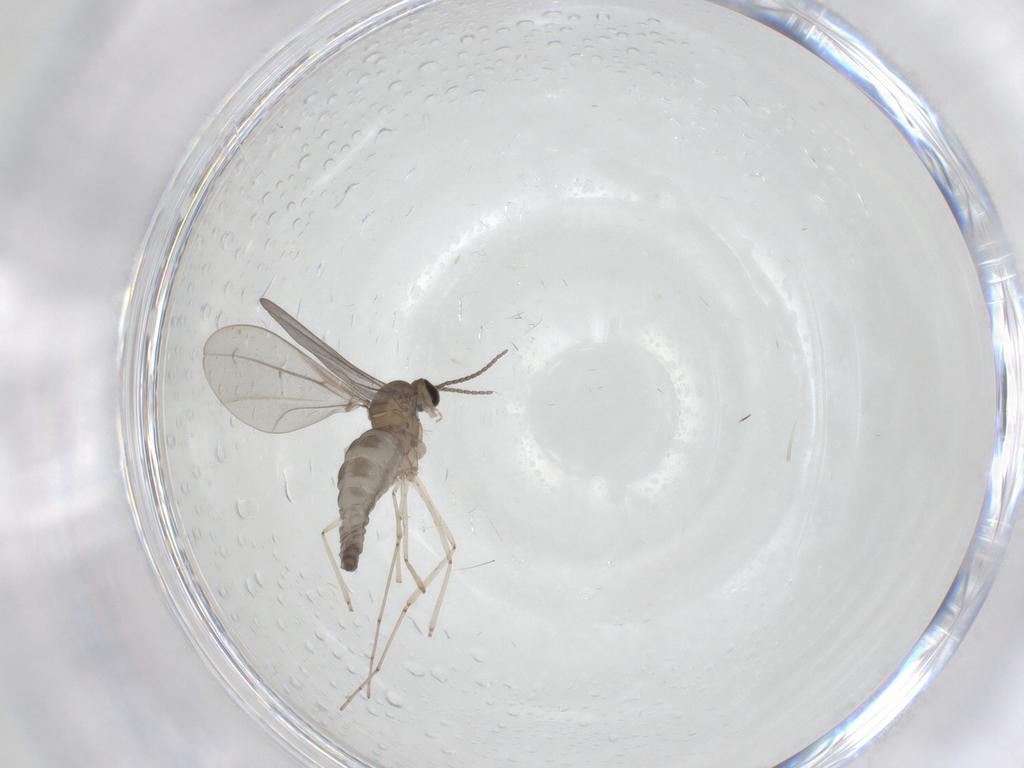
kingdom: Animalia
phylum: Arthropoda
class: Insecta
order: Diptera
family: Cecidomyiidae
